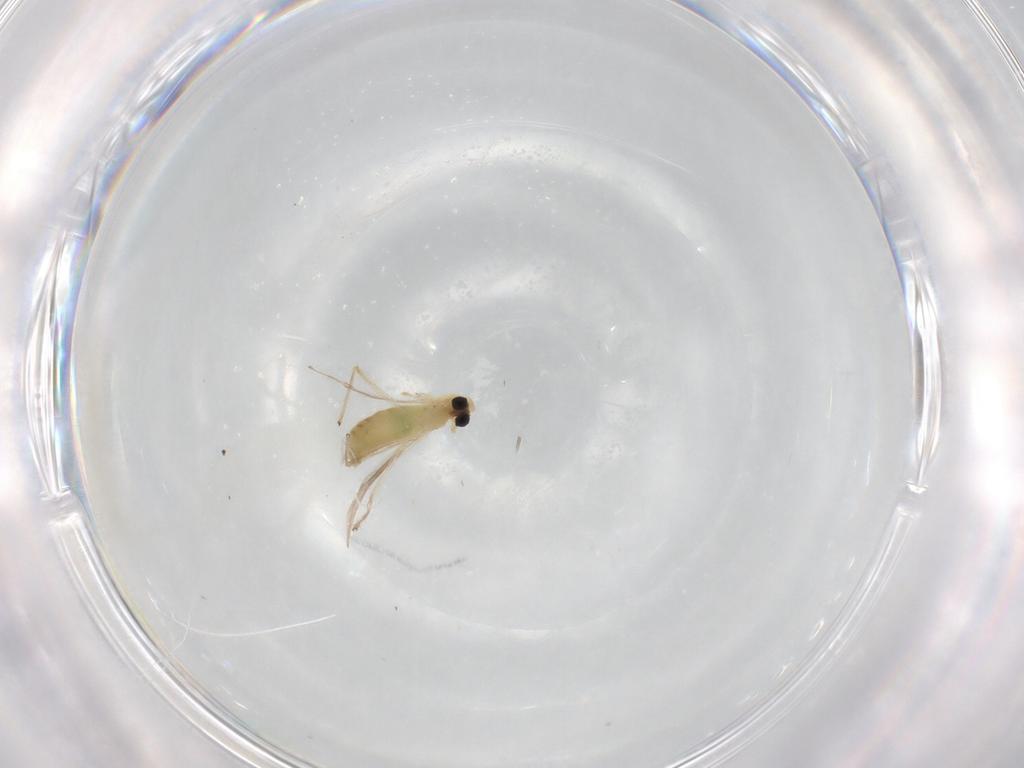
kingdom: Animalia
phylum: Arthropoda
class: Insecta
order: Diptera
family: Chironomidae
